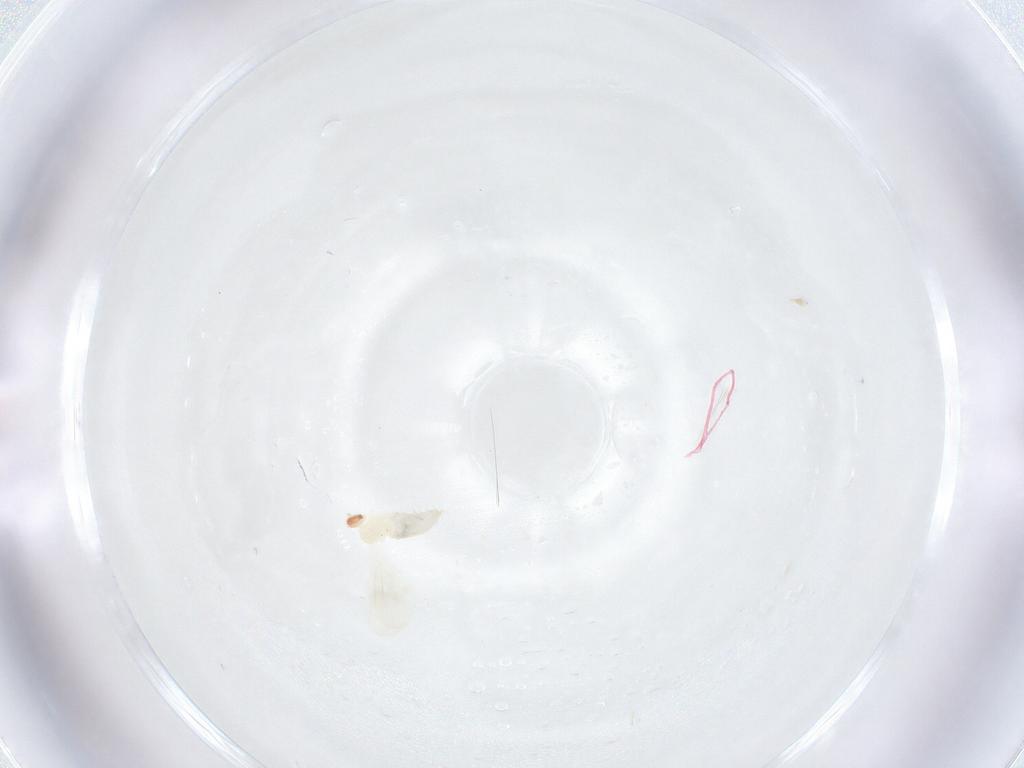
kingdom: Animalia
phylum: Arthropoda
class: Insecta
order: Diptera
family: Cecidomyiidae
